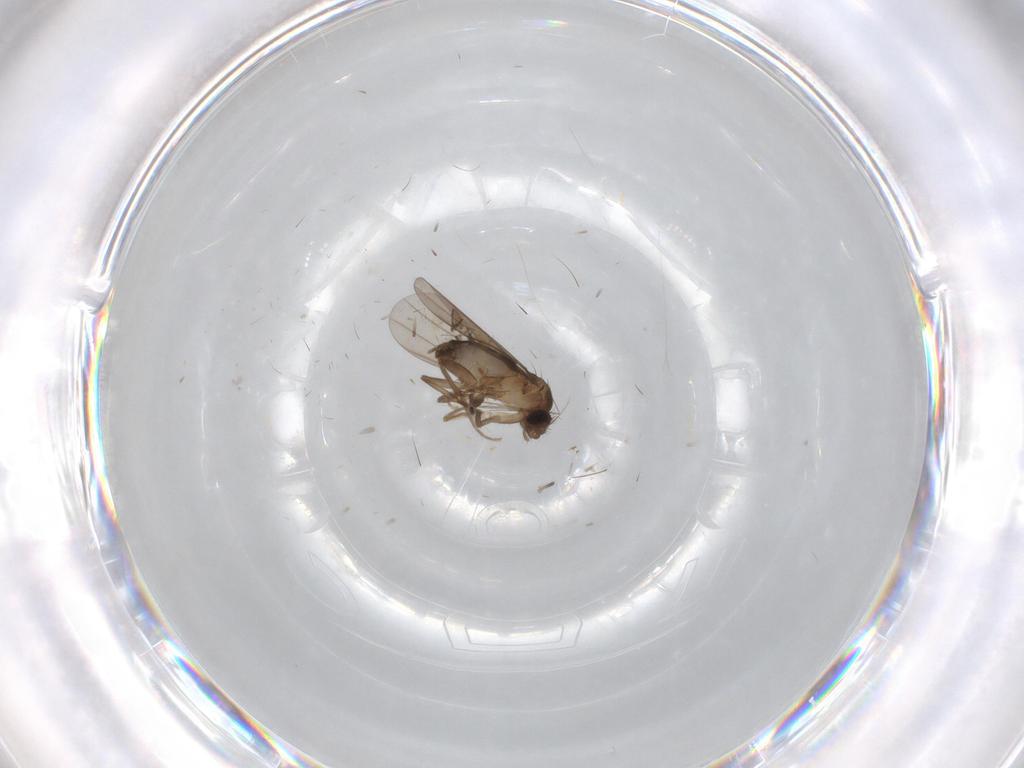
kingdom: Animalia
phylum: Arthropoda
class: Insecta
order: Diptera
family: Phoridae
